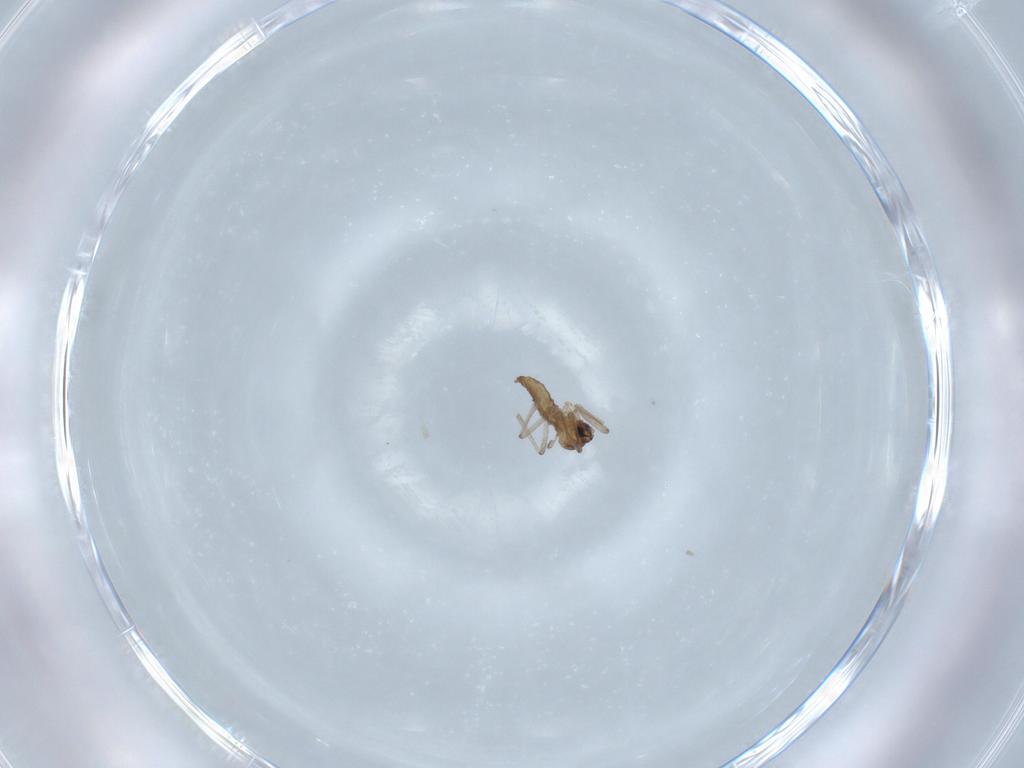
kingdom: Animalia
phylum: Arthropoda
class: Insecta
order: Diptera
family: Cecidomyiidae
